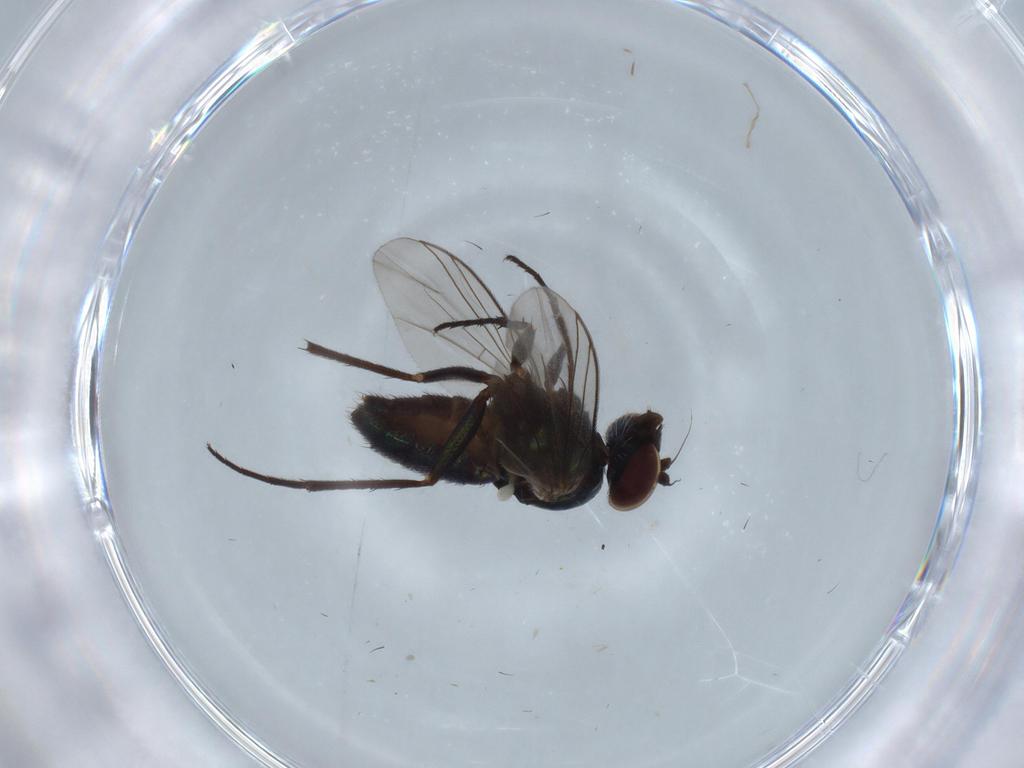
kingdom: Animalia
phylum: Arthropoda
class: Insecta
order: Diptera
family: Dolichopodidae
